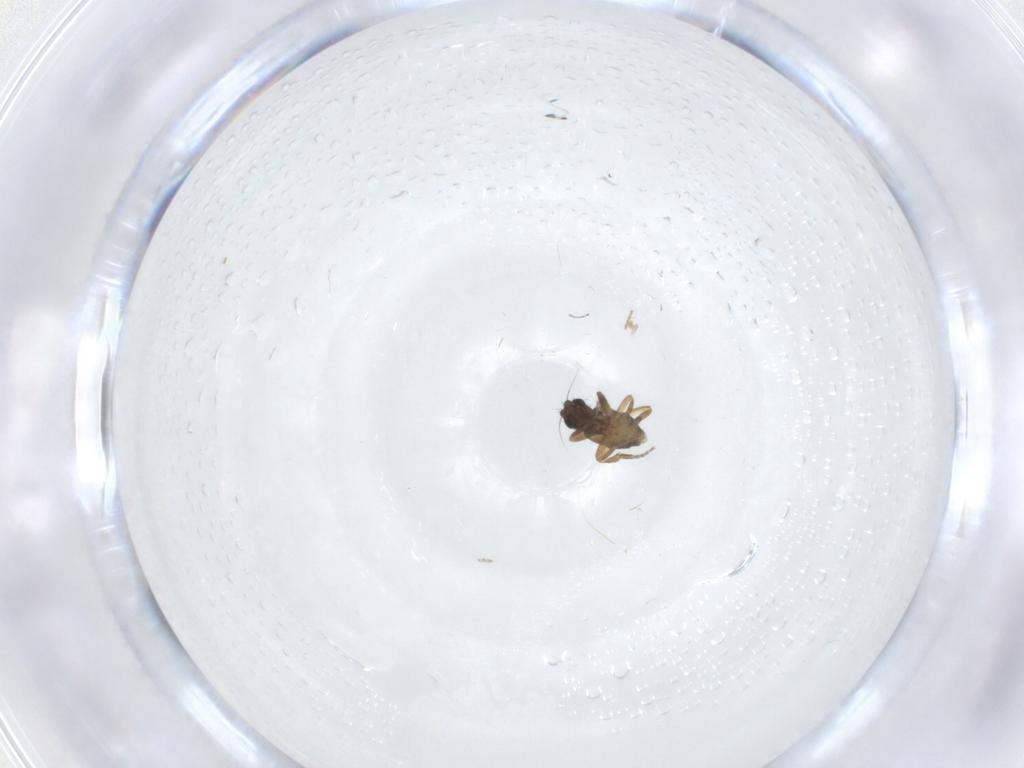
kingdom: Animalia
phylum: Arthropoda
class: Insecta
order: Diptera
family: Phoridae
